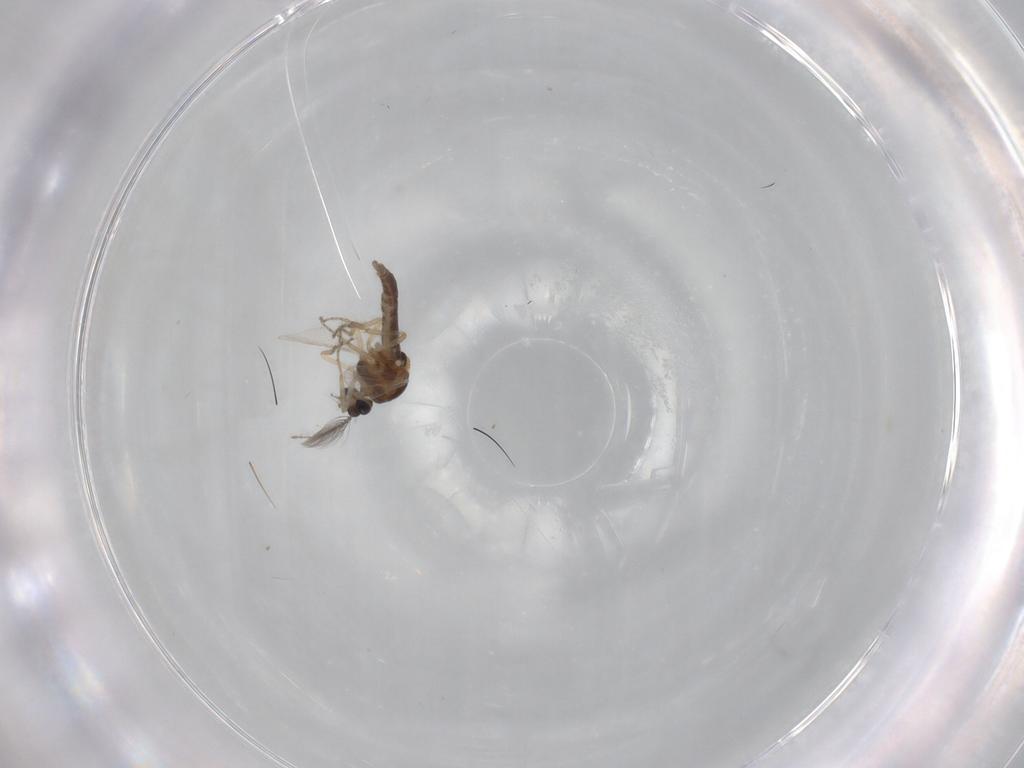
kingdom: Animalia
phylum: Arthropoda
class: Insecta
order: Diptera
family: Ceratopogonidae
